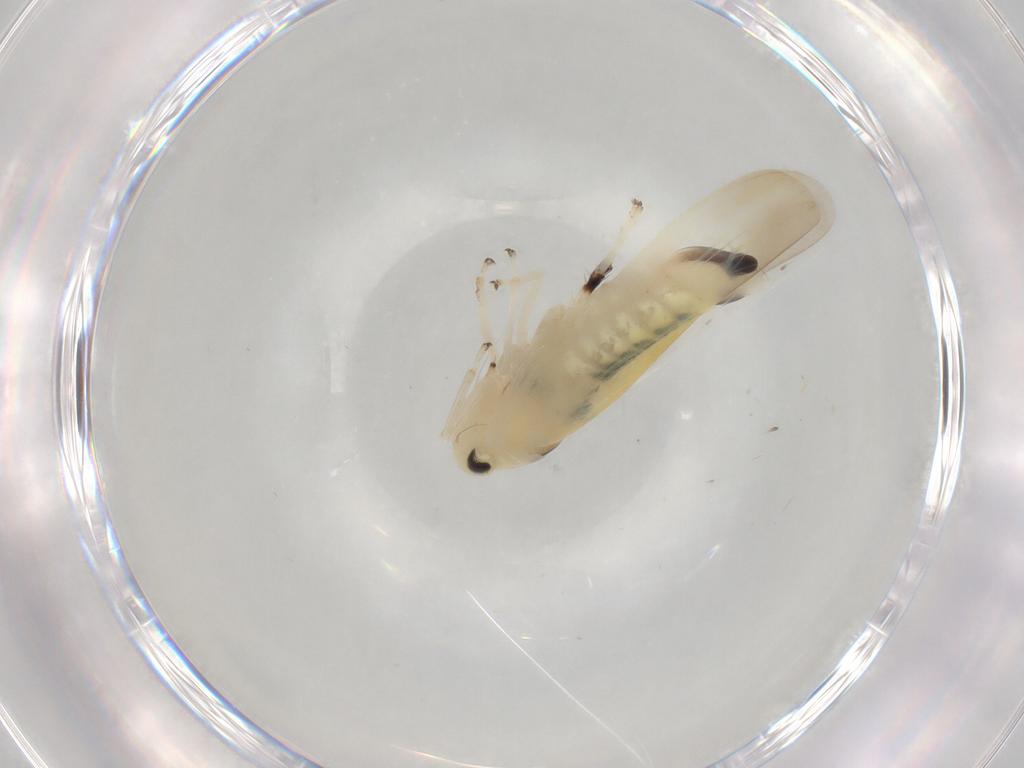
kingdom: Animalia
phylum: Arthropoda
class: Insecta
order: Hemiptera
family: Cicadellidae
